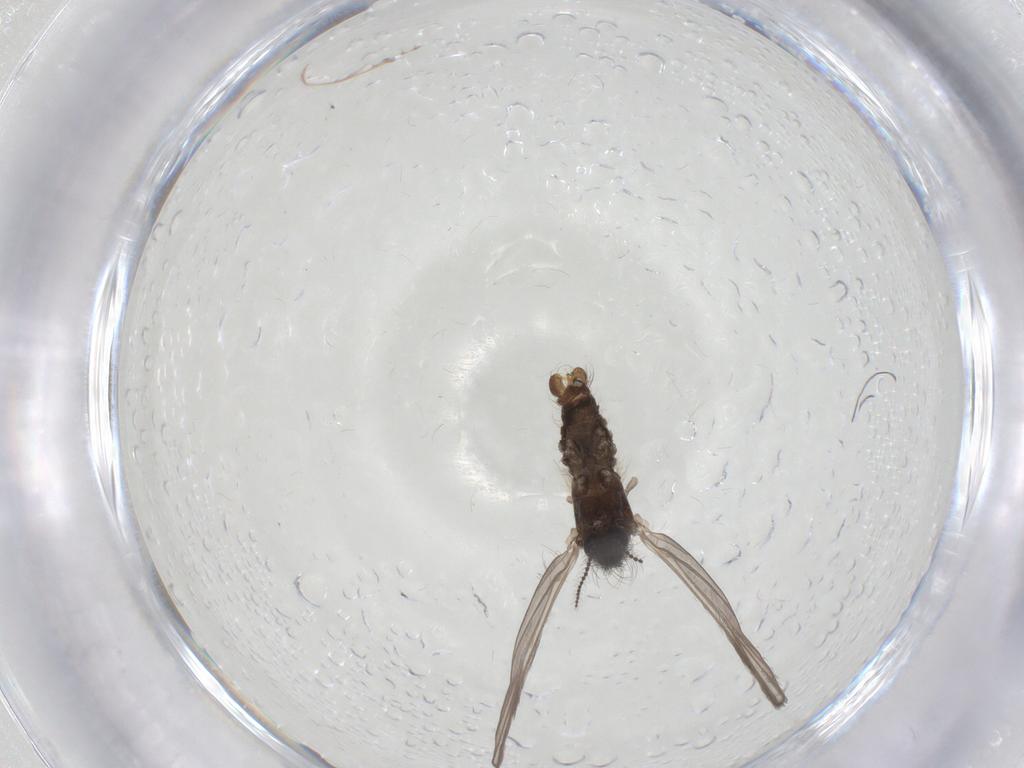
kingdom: Animalia
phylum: Arthropoda
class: Insecta
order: Diptera
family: Limoniidae
